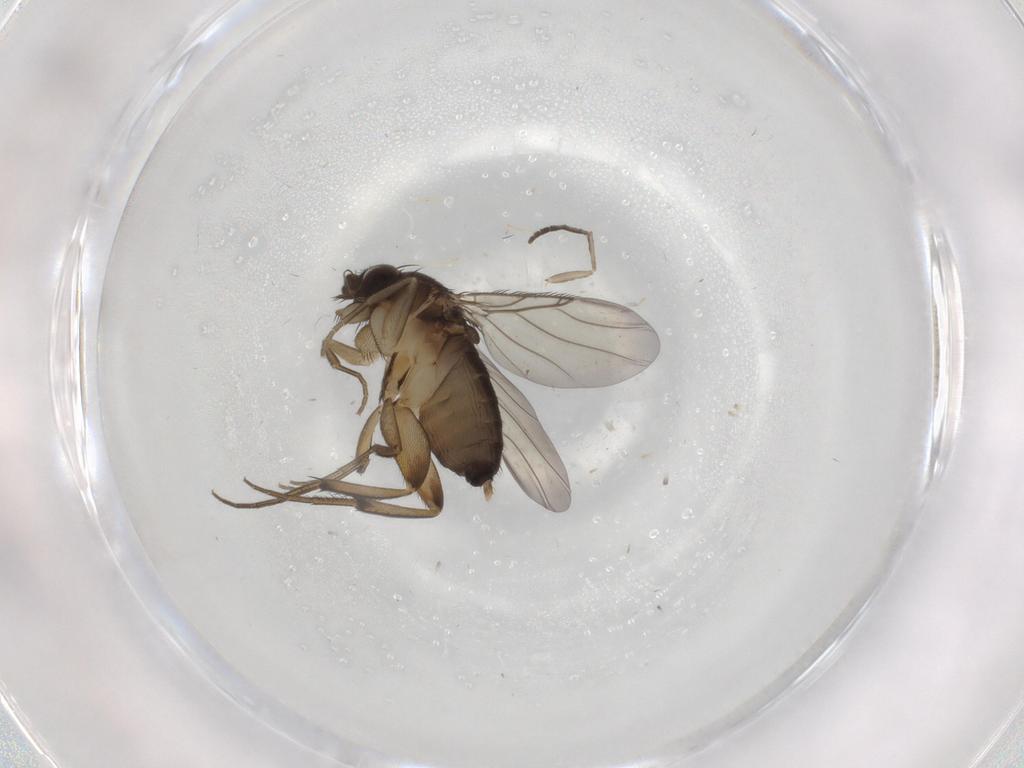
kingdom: Animalia
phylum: Arthropoda
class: Insecta
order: Diptera
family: Phoridae
